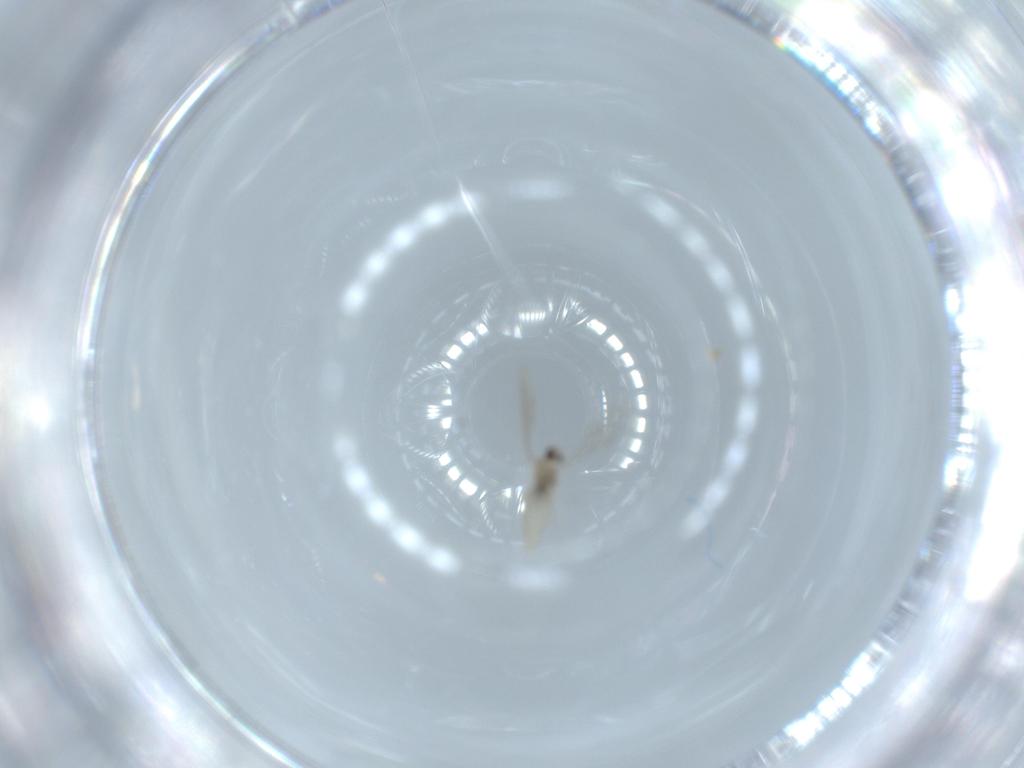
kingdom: Animalia
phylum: Arthropoda
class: Insecta
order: Diptera
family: Cecidomyiidae
